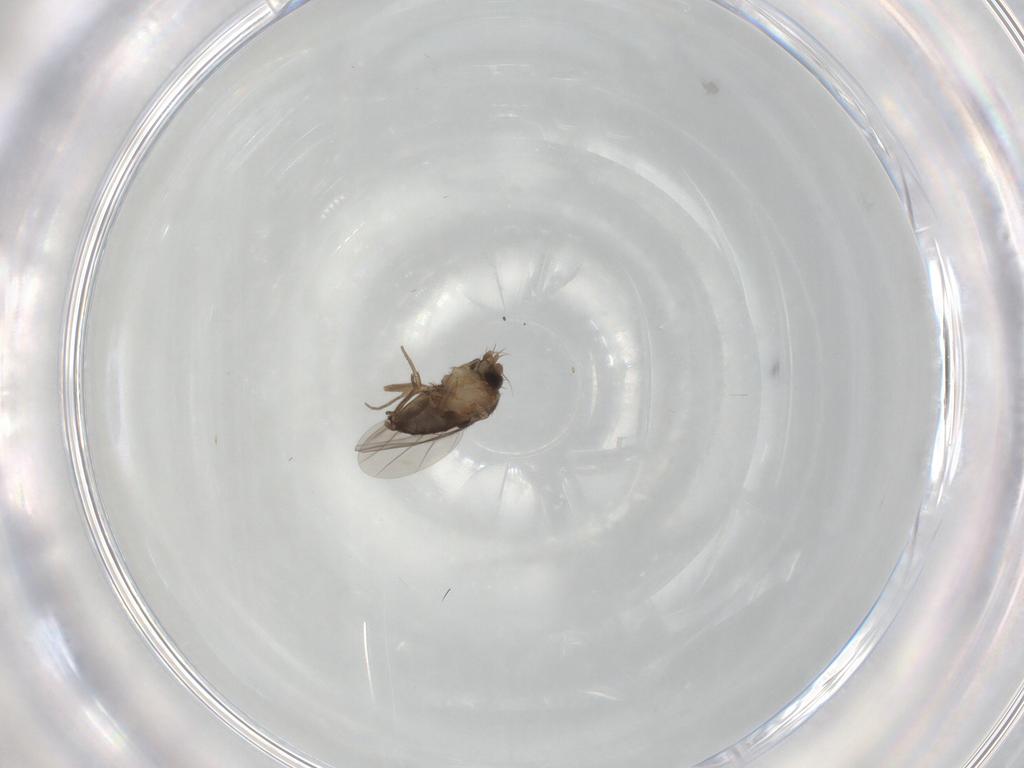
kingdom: Animalia
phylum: Arthropoda
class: Insecta
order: Diptera
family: Phoridae
